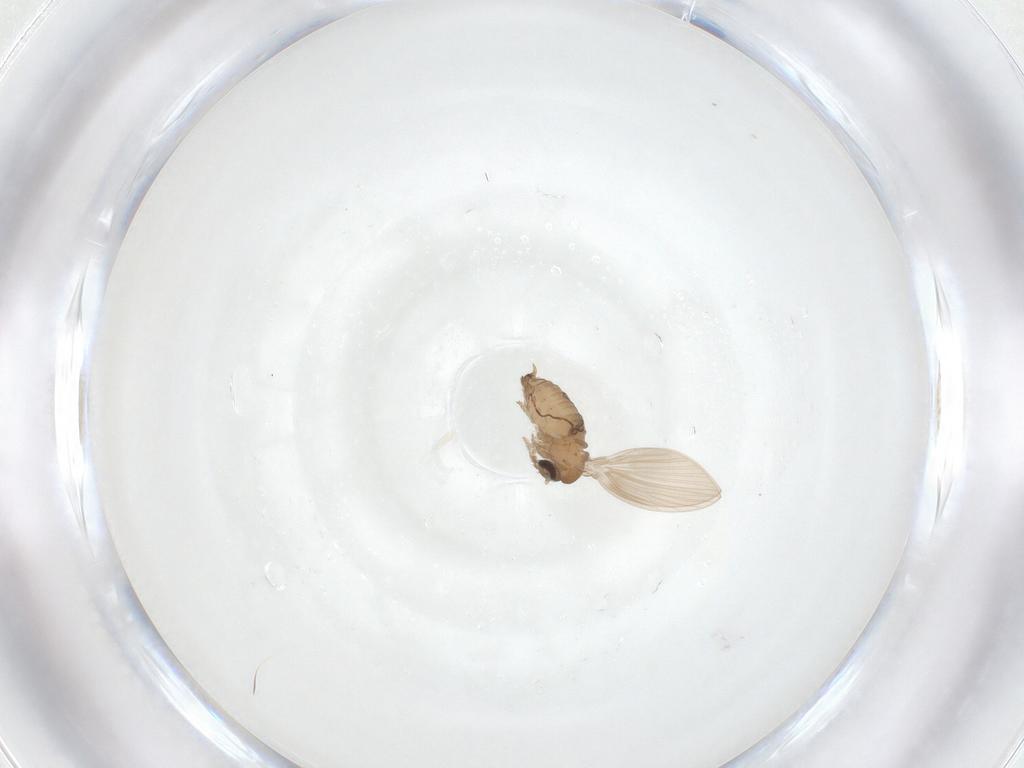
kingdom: Animalia
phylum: Arthropoda
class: Insecta
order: Diptera
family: Psychodidae
